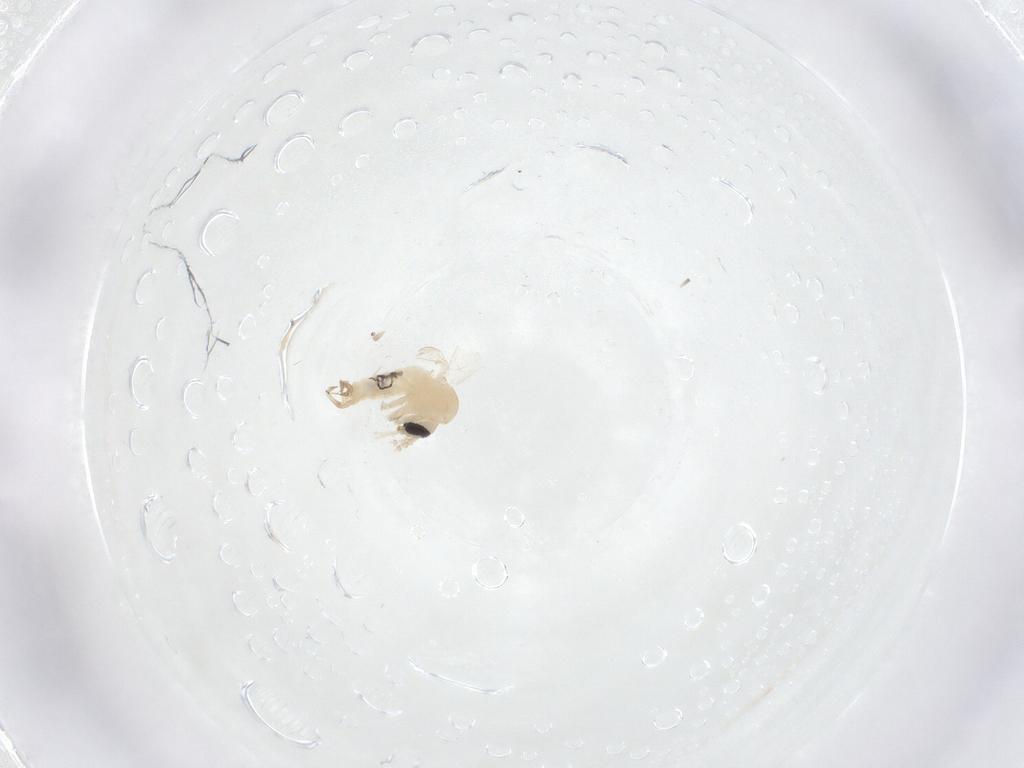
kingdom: Animalia
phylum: Arthropoda
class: Insecta
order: Diptera
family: Psychodidae
